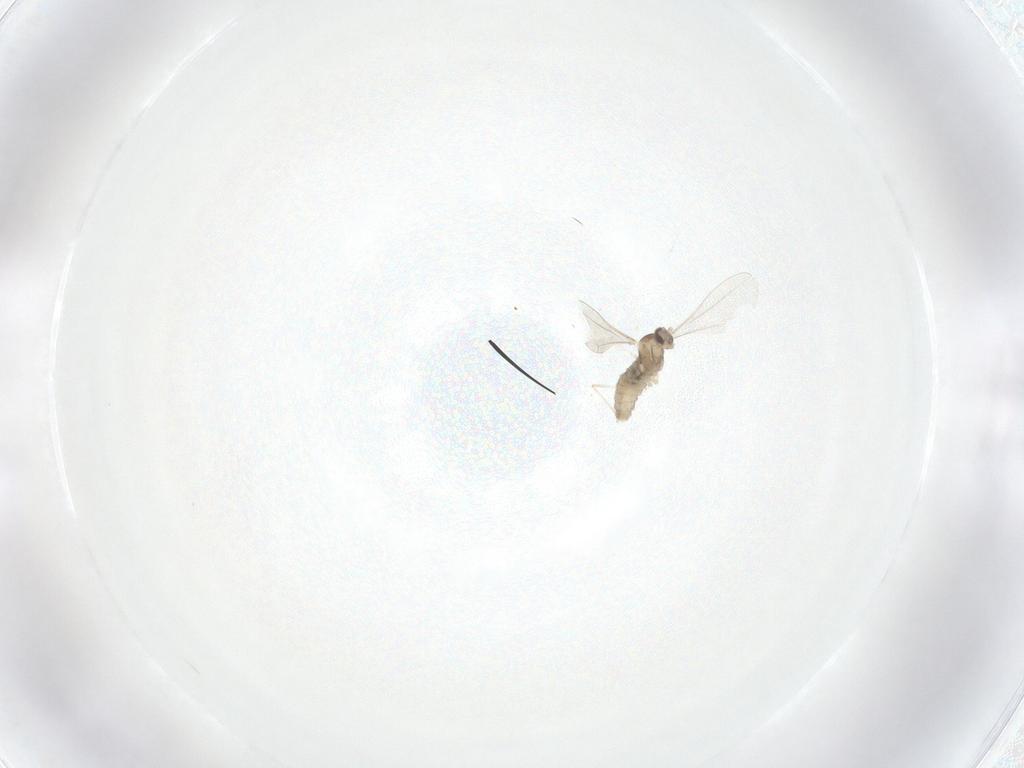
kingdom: Animalia
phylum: Arthropoda
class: Insecta
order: Diptera
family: Cecidomyiidae
